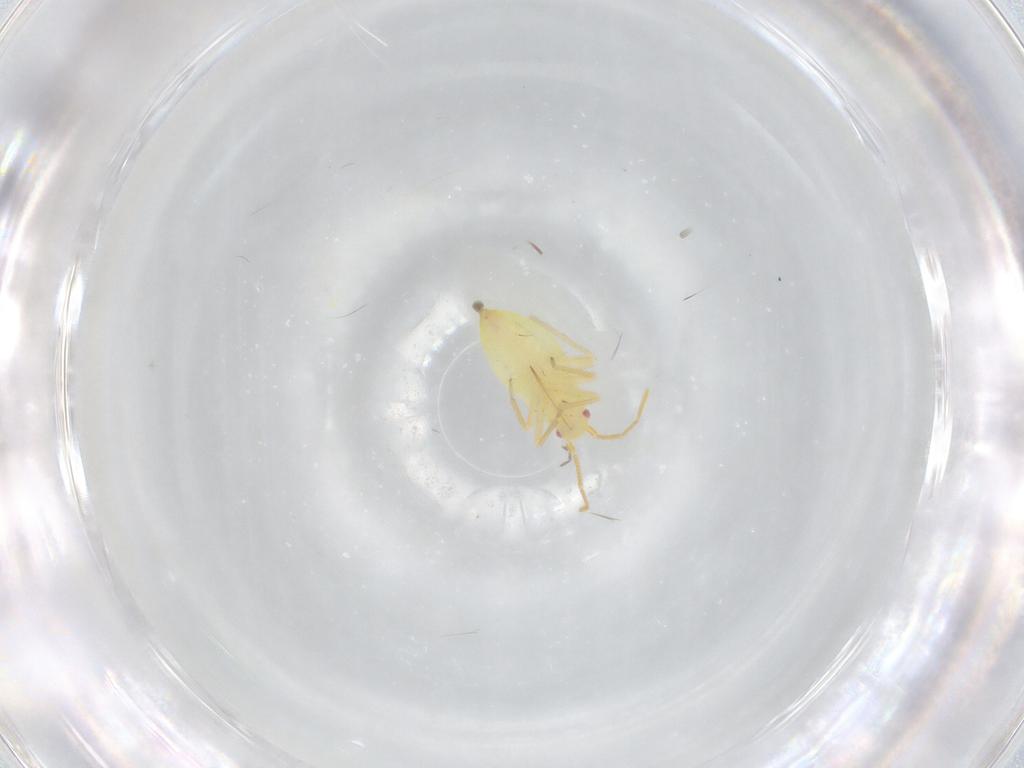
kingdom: Animalia
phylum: Arthropoda
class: Insecta
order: Hemiptera
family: Aleyrodidae
